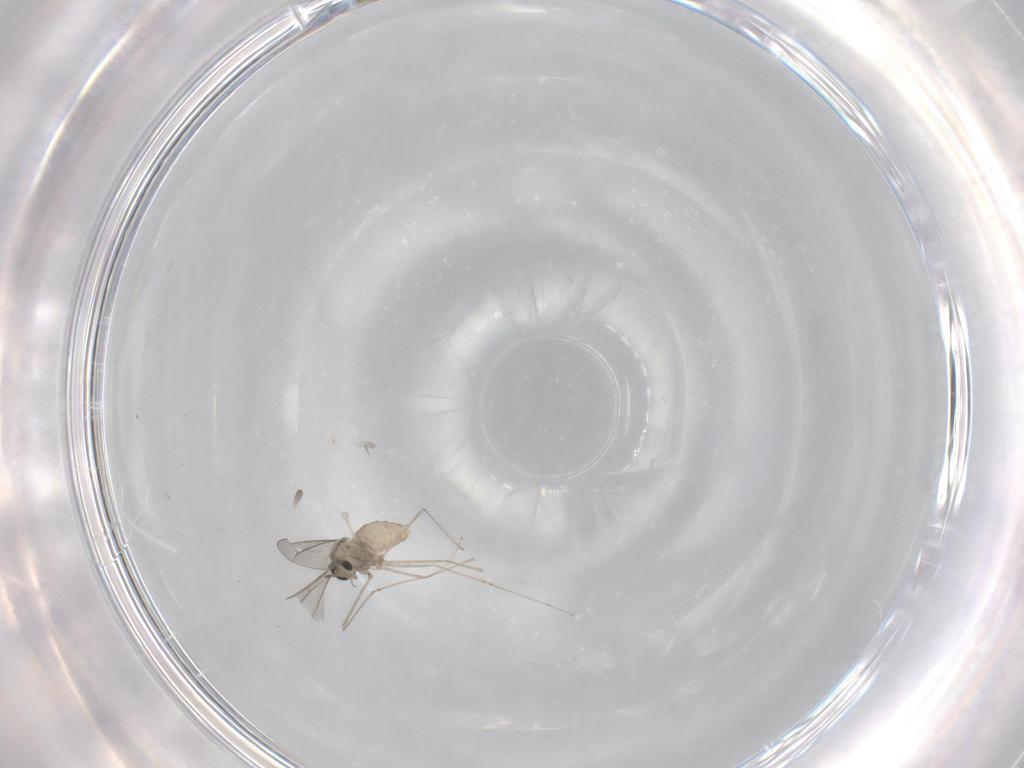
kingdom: Animalia
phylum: Arthropoda
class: Insecta
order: Diptera
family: Cecidomyiidae
